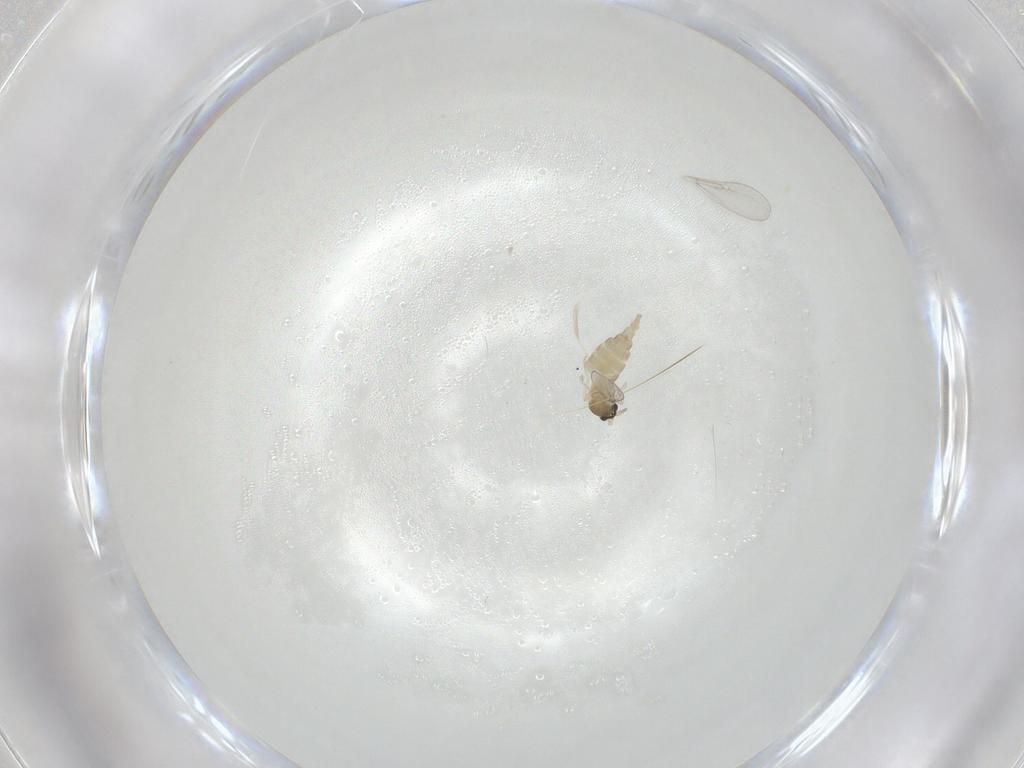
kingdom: Animalia
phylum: Arthropoda
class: Insecta
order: Diptera
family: Cecidomyiidae
